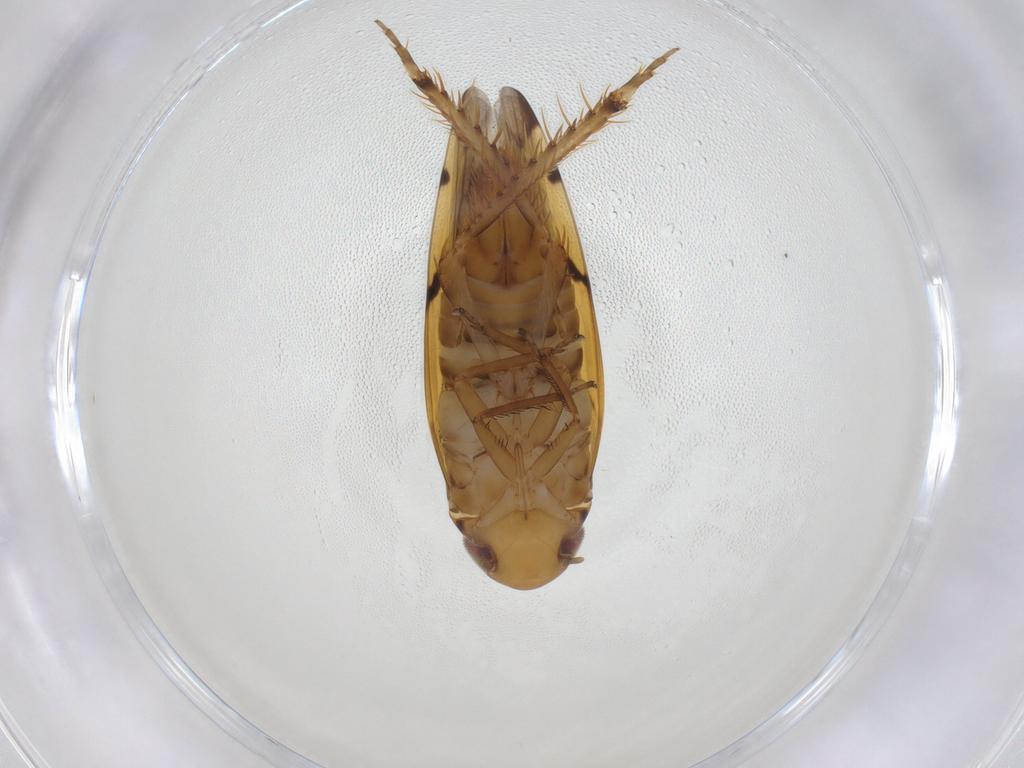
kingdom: Animalia
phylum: Arthropoda
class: Insecta
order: Hemiptera
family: Cicadellidae
